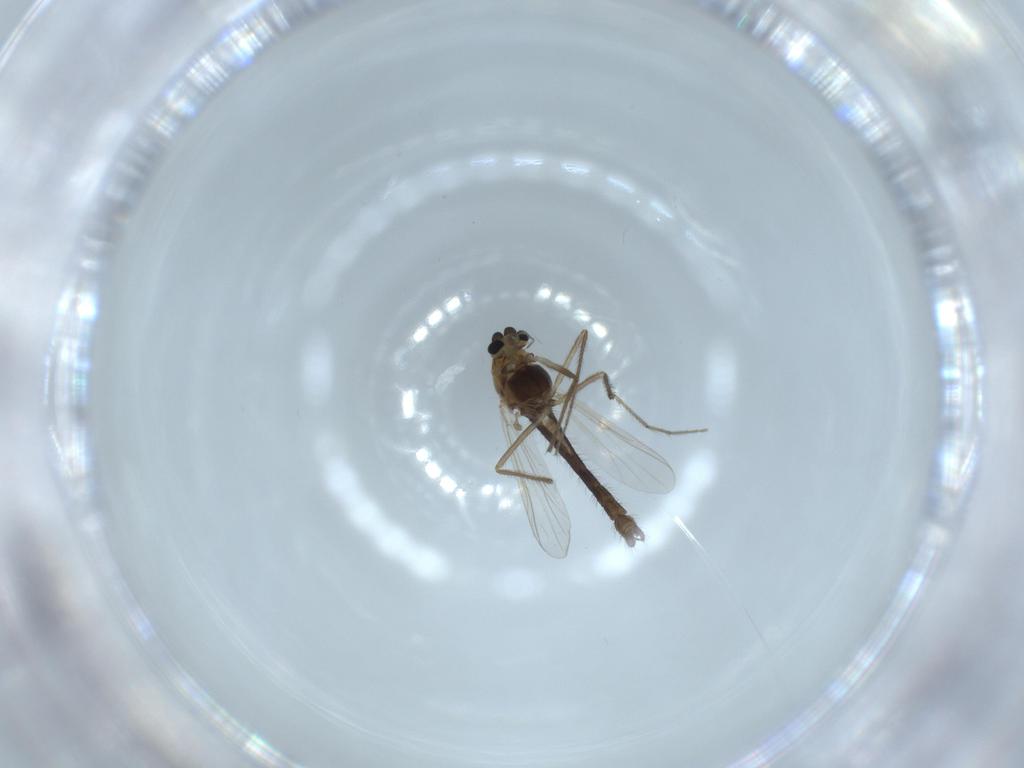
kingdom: Animalia
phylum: Arthropoda
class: Insecta
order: Diptera
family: Chironomidae
